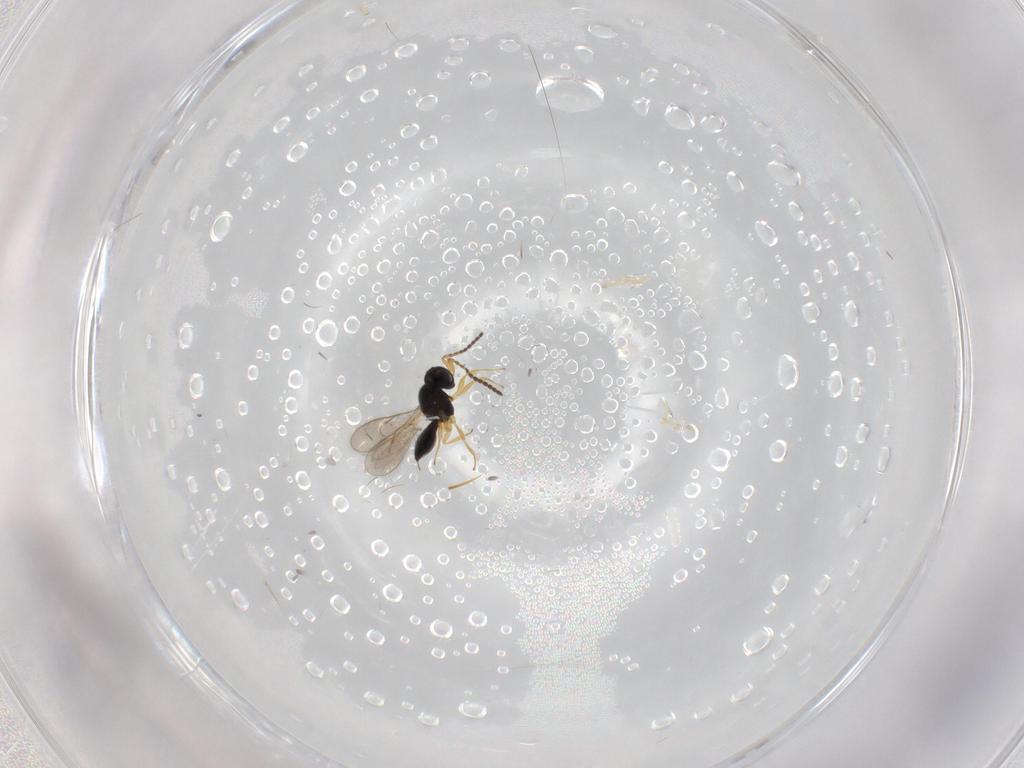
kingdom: Animalia
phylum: Arthropoda
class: Insecta
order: Hymenoptera
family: Scelionidae
